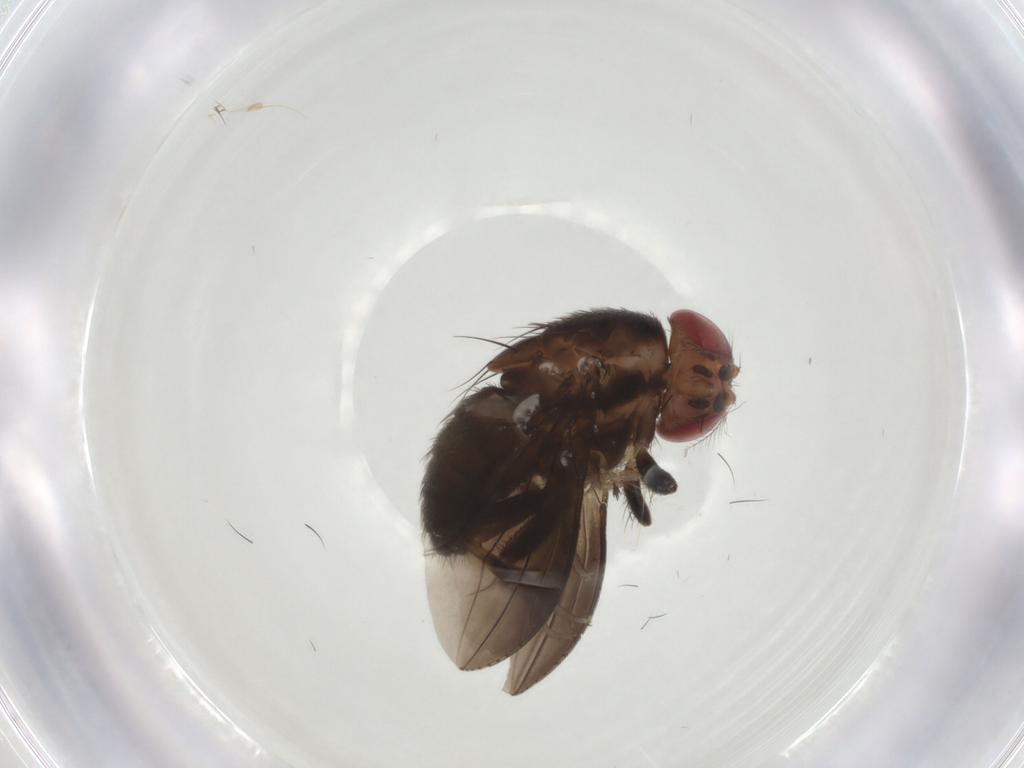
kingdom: Animalia
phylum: Arthropoda
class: Insecta
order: Diptera
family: Drosophilidae
